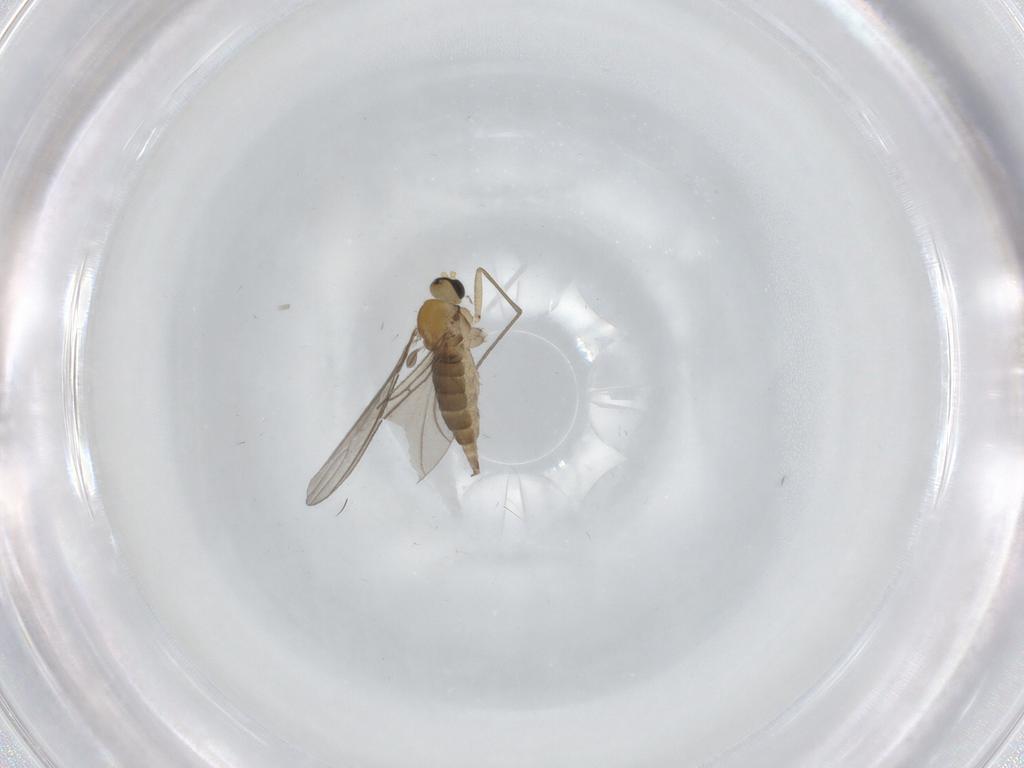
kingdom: Animalia
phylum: Arthropoda
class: Insecta
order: Diptera
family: Sciaridae
